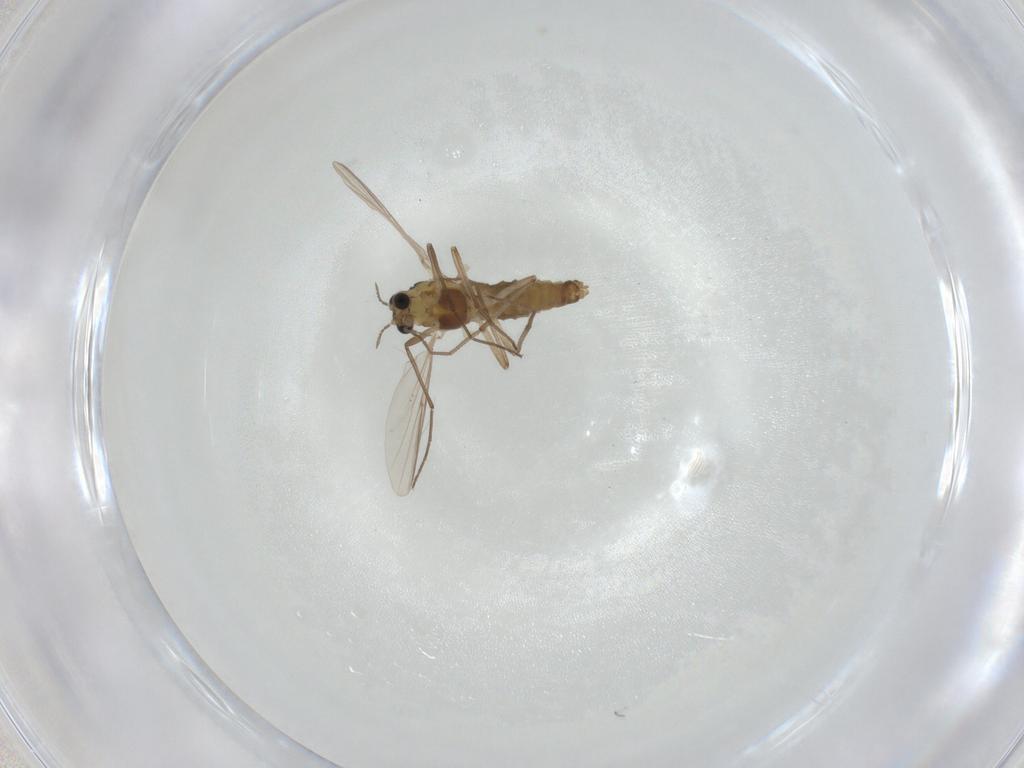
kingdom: Animalia
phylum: Arthropoda
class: Insecta
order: Diptera
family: Chironomidae
